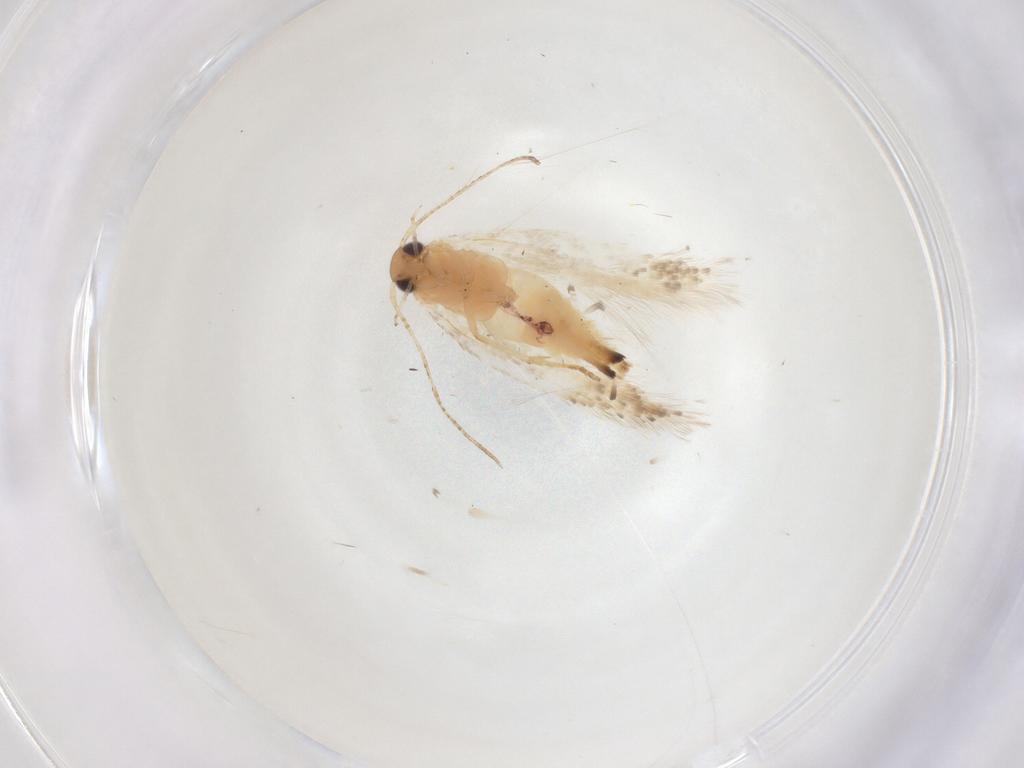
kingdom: Animalia
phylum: Arthropoda
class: Insecta
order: Lepidoptera
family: Gelechiidae
